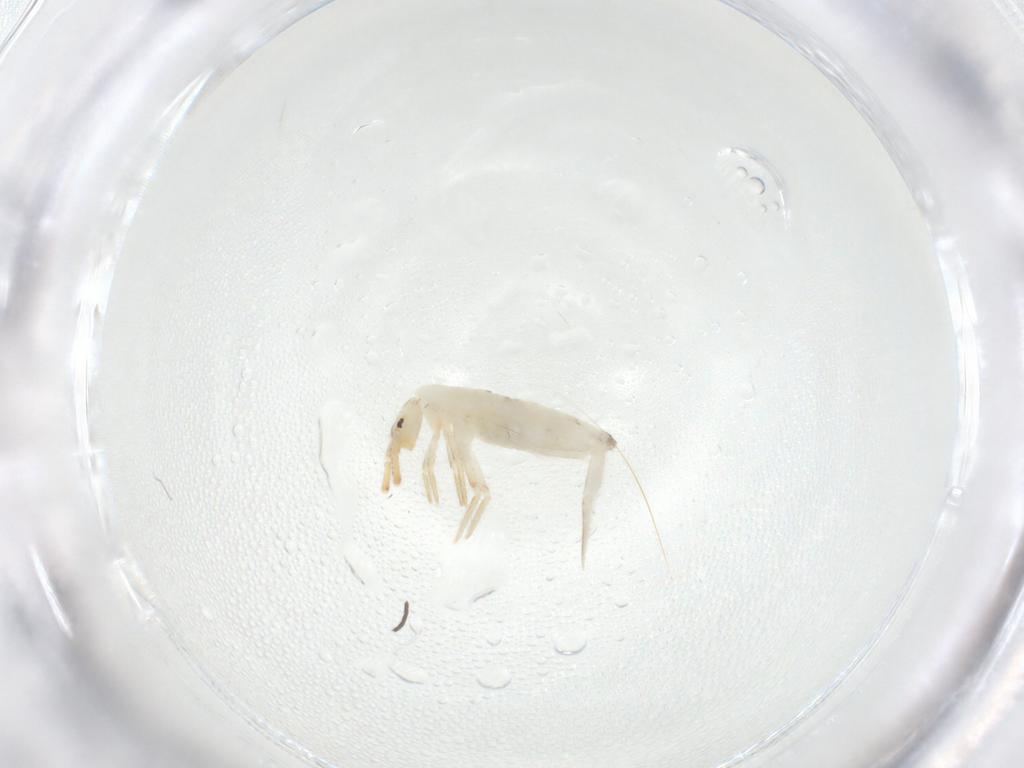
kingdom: Animalia
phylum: Arthropoda
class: Collembola
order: Entomobryomorpha
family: Entomobryidae
